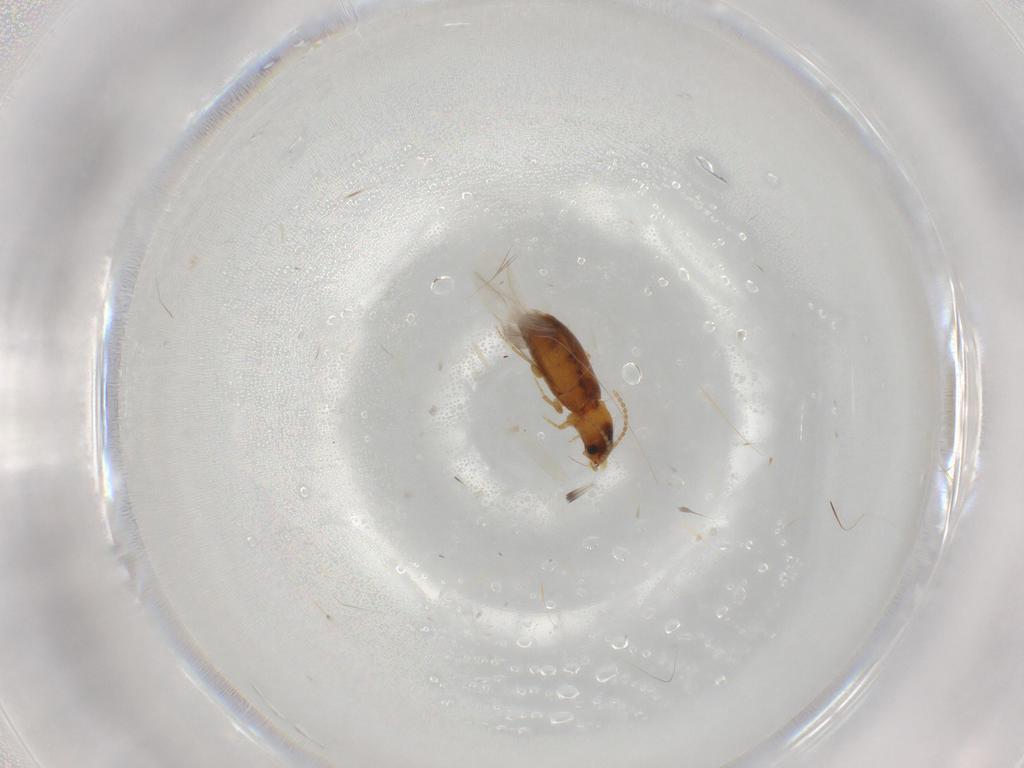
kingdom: Animalia
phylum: Arthropoda
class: Insecta
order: Coleoptera
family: Carabidae
